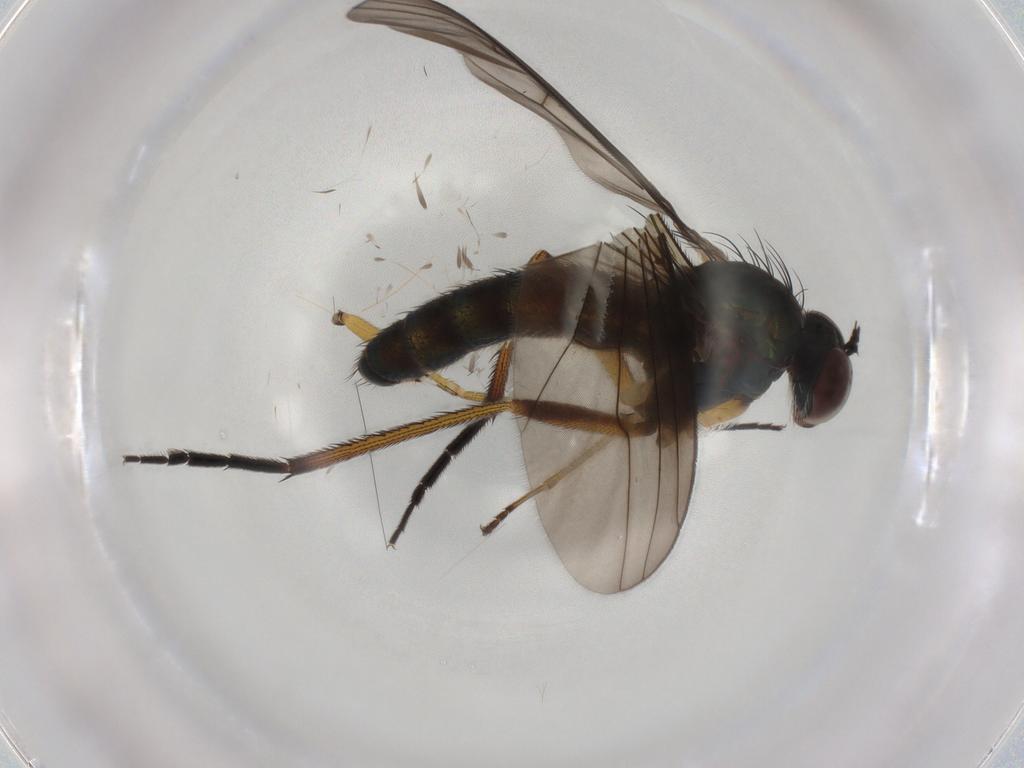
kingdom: Animalia
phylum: Arthropoda
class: Insecta
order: Diptera
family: Dolichopodidae
